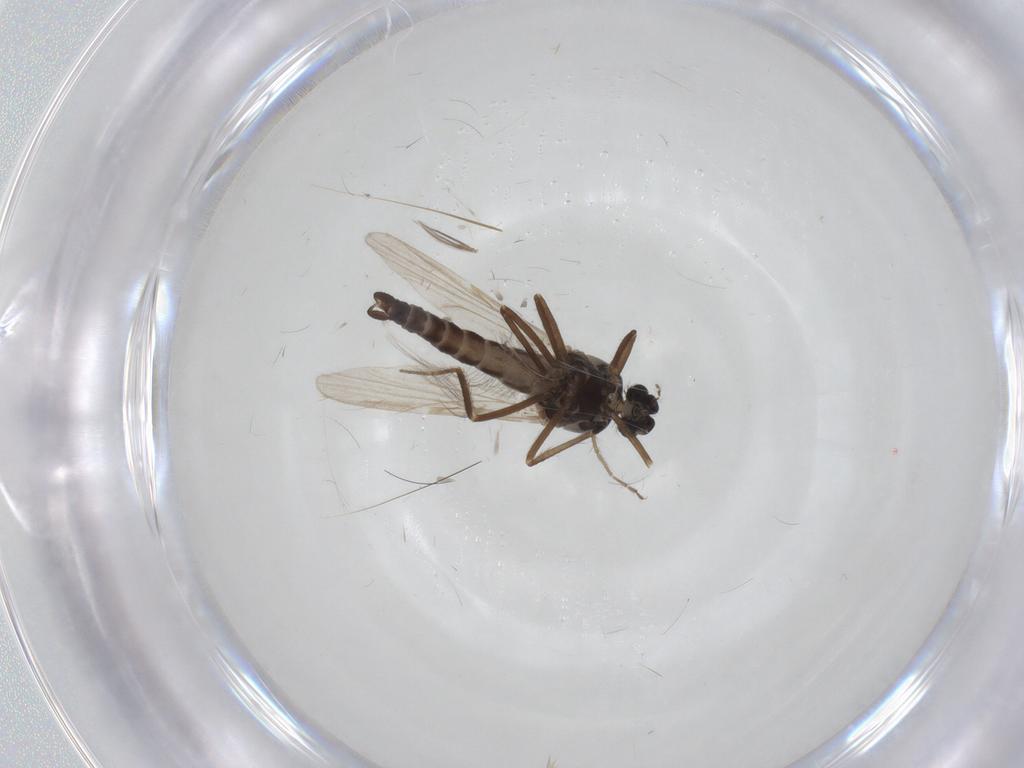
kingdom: Animalia
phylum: Arthropoda
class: Insecta
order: Diptera
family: Ceratopogonidae
